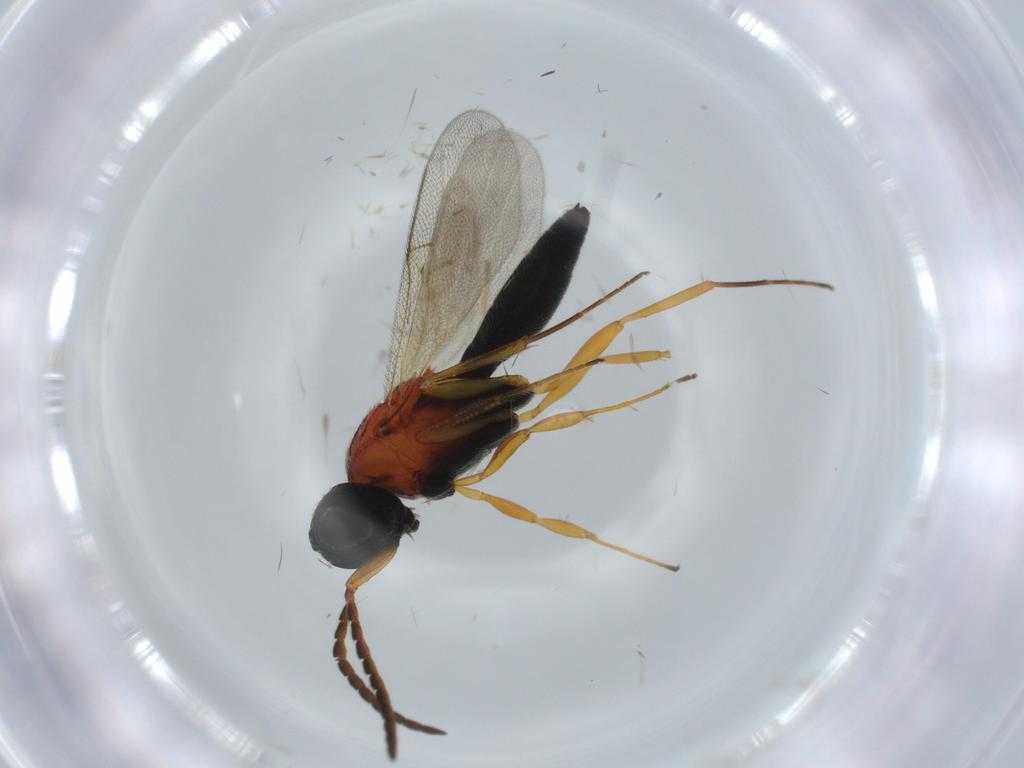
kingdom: Animalia
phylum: Arthropoda
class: Insecta
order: Hymenoptera
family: Scelionidae
